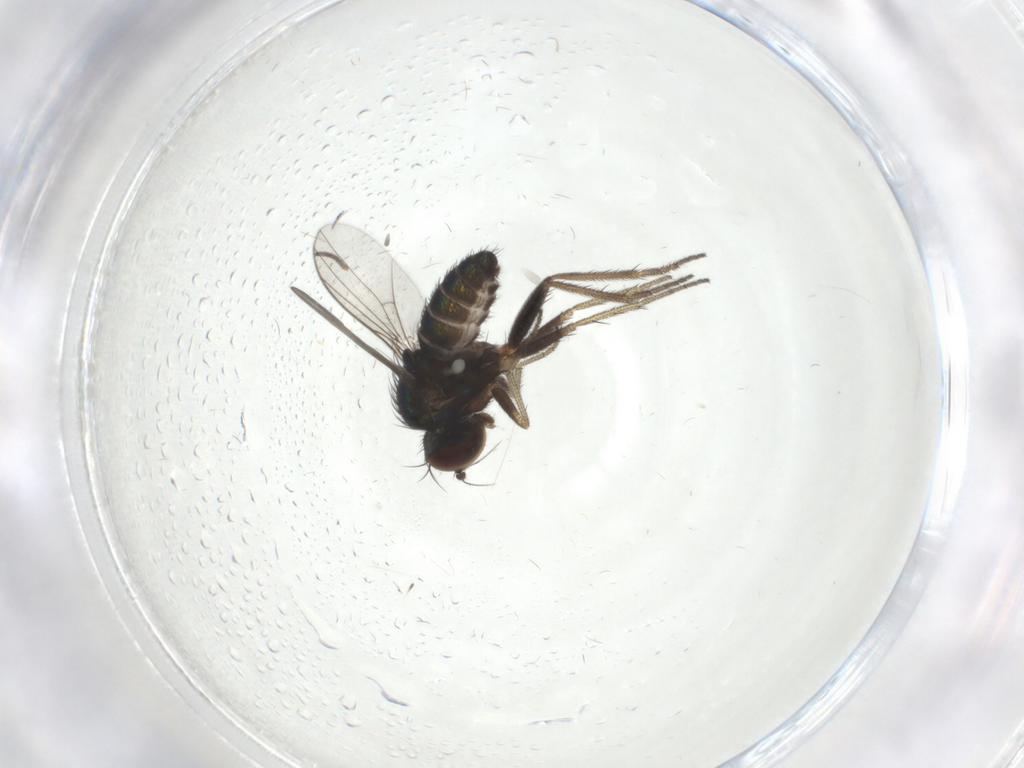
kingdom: Animalia
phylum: Arthropoda
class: Insecta
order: Diptera
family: Dolichopodidae
